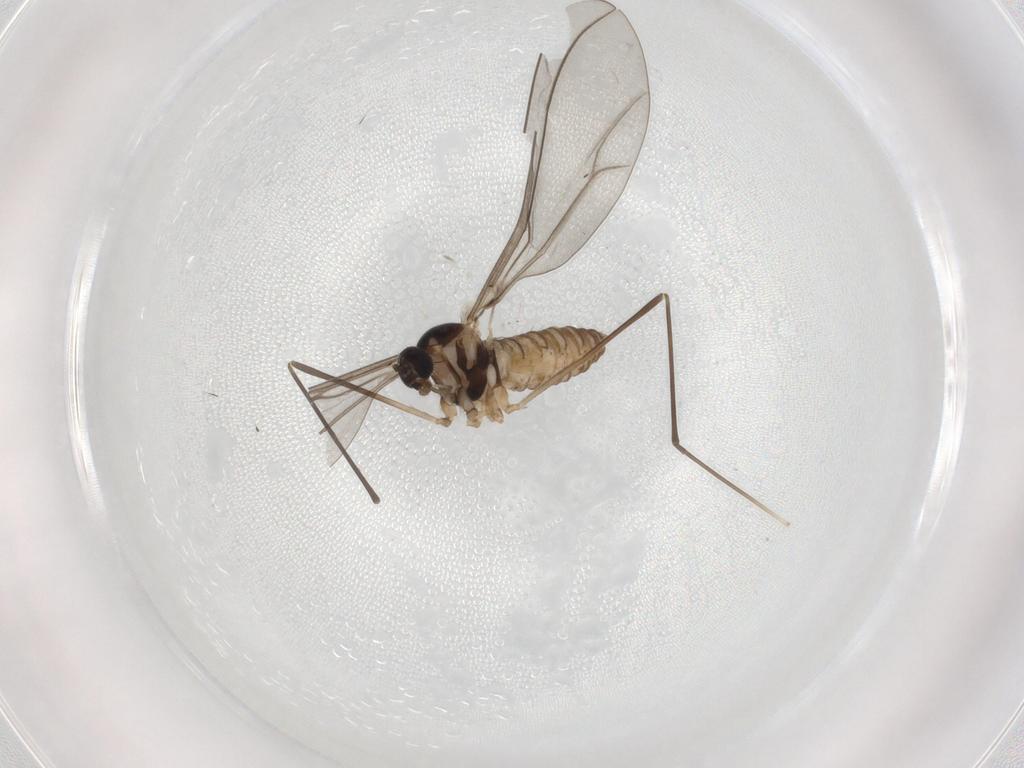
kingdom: Animalia
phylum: Arthropoda
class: Insecta
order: Diptera
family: Cecidomyiidae
